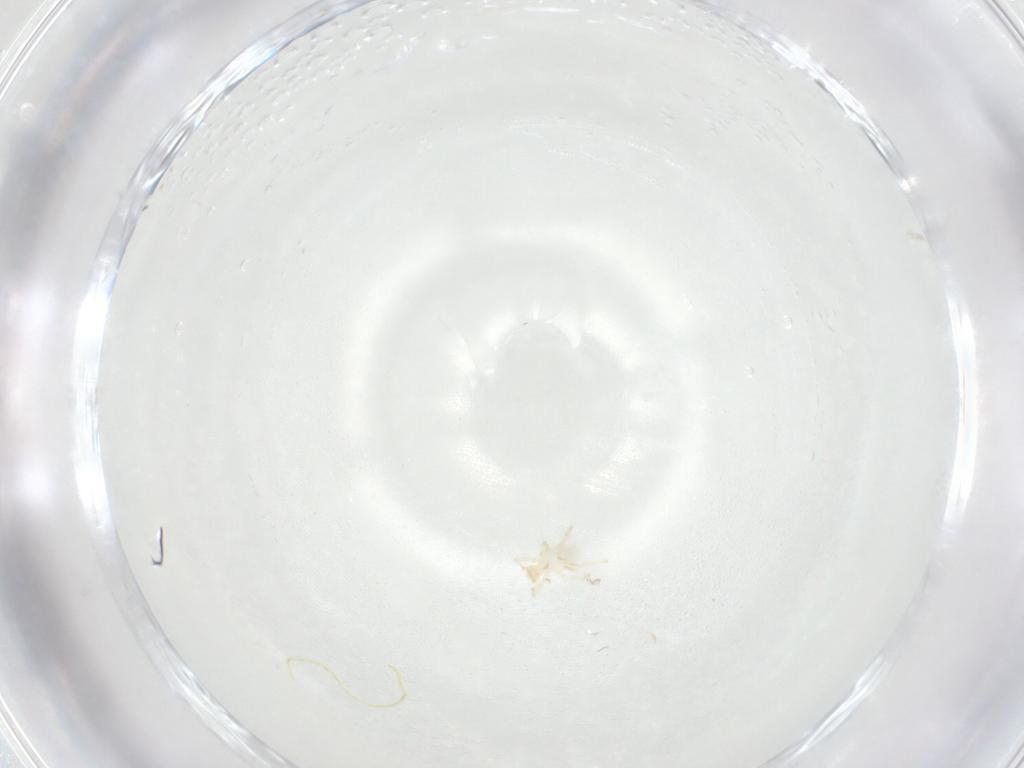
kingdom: Animalia
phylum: Arthropoda
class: Arachnida
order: Trombidiformes
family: Erythraeidae
